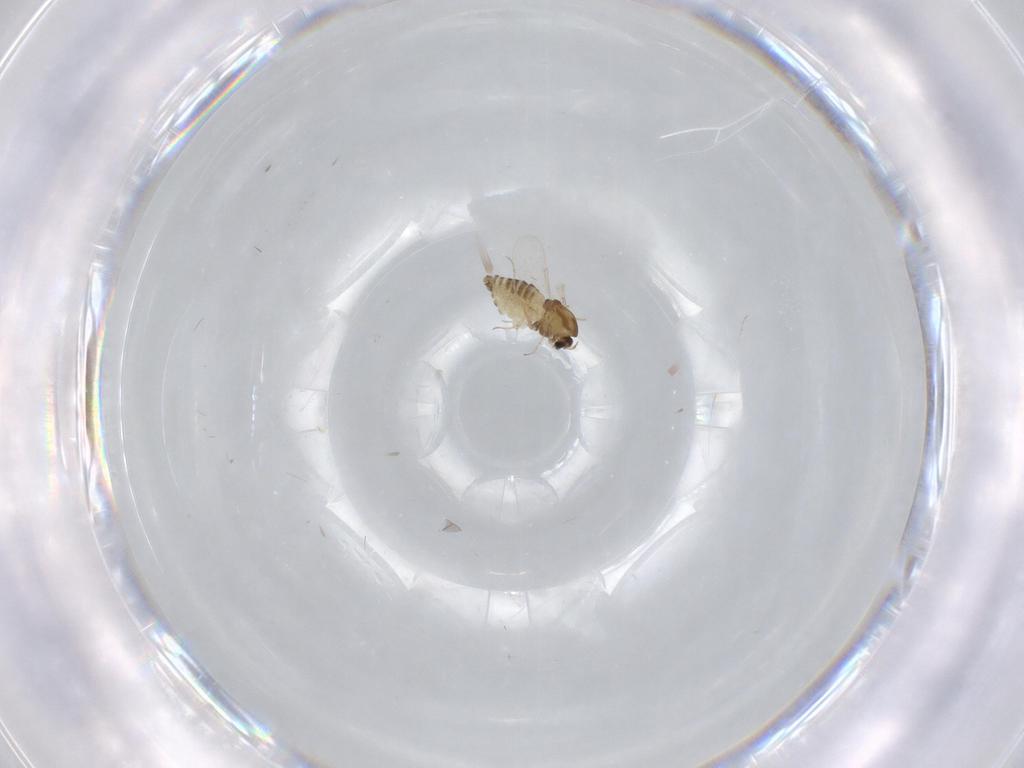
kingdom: Animalia
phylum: Arthropoda
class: Insecta
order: Diptera
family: Chironomidae
